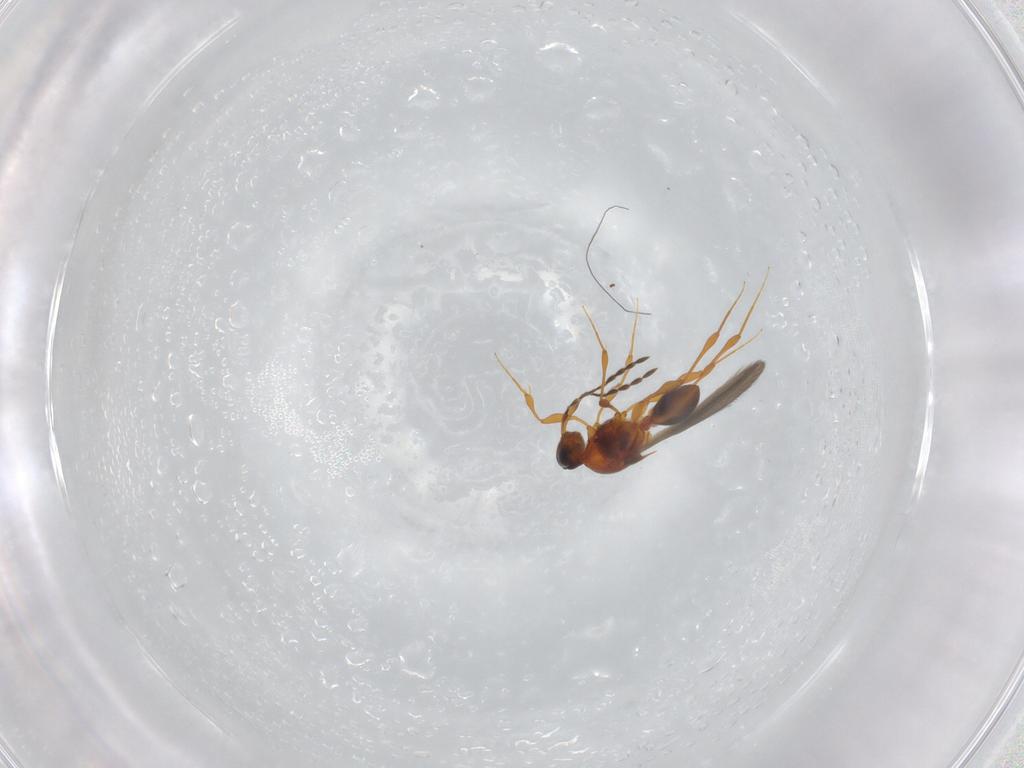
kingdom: Animalia
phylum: Arthropoda
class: Insecta
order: Hymenoptera
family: Platygastridae
